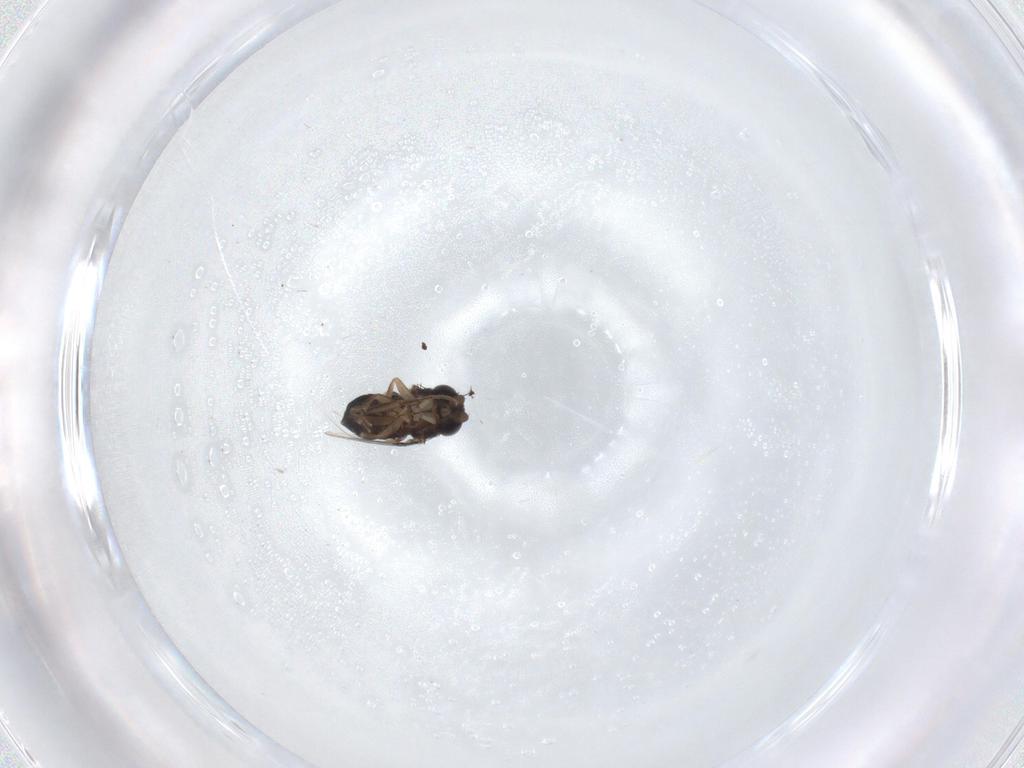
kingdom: Animalia
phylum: Arthropoda
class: Insecta
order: Diptera
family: Phoridae
